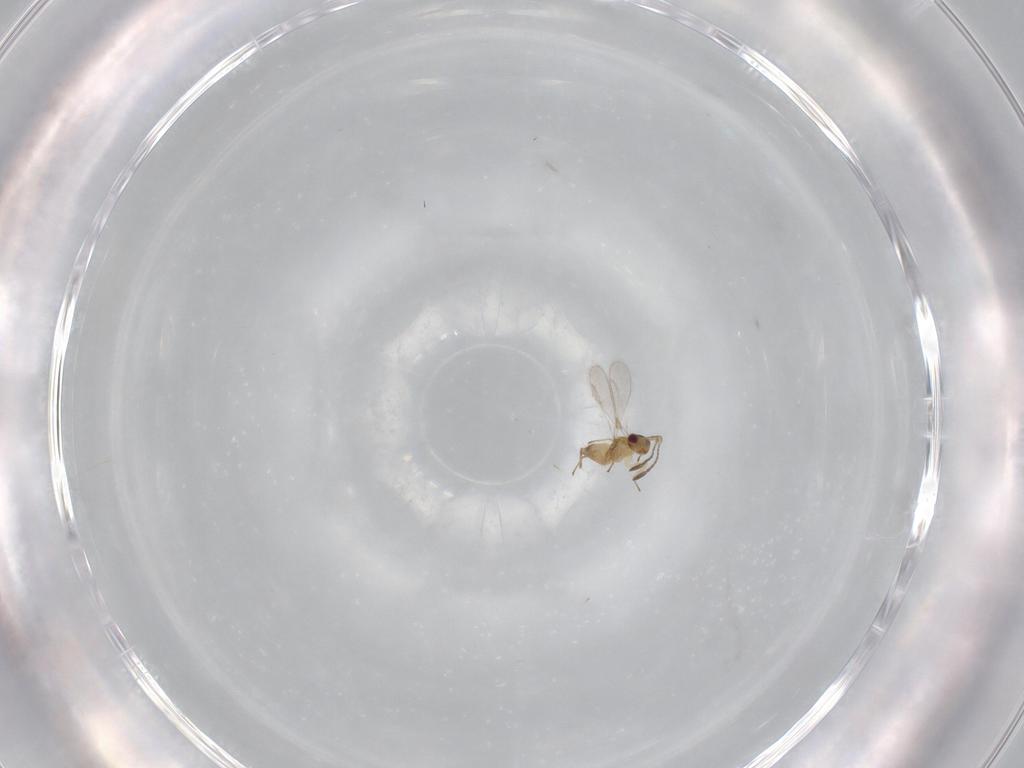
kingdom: Animalia
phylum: Arthropoda
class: Insecta
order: Hymenoptera
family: Mymaridae
